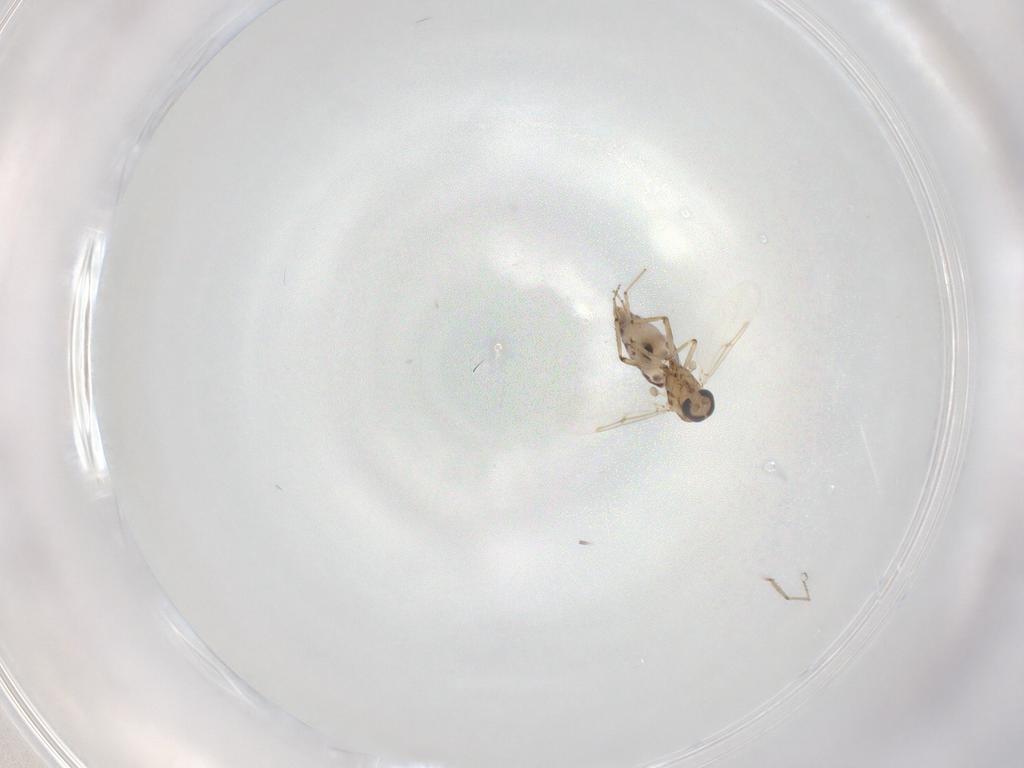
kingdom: Animalia
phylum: Arthropoda
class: Insecta
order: Diptera
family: Ceratopogonidae
